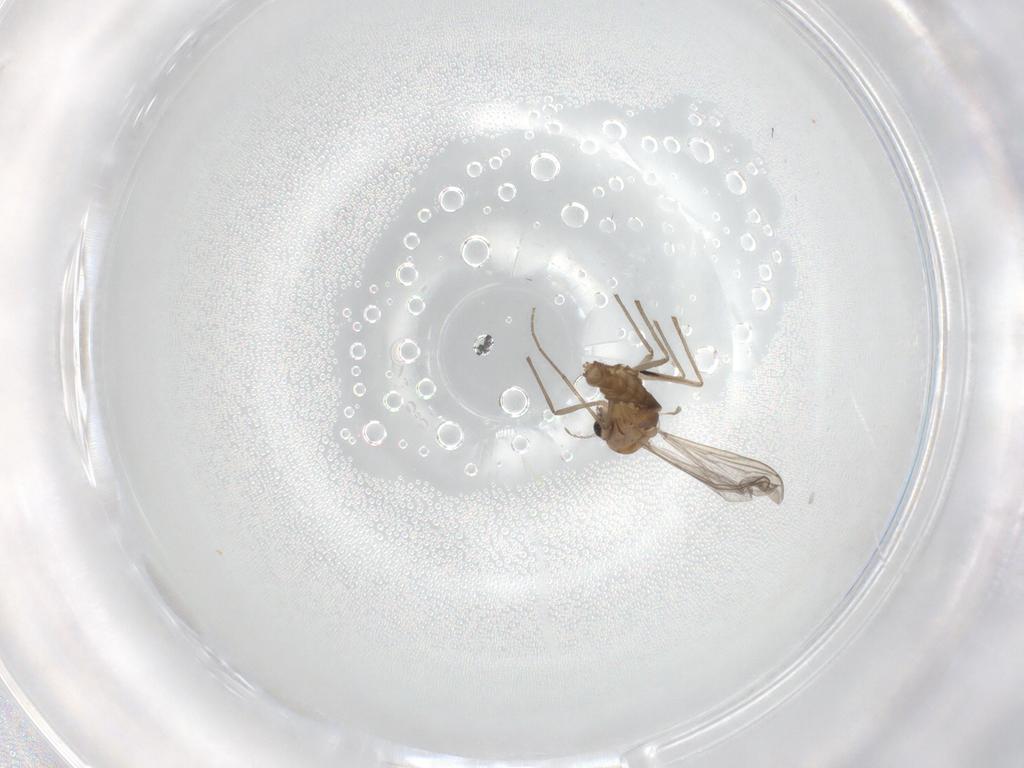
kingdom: Animalia
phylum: Arthropoda
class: Insecta
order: Diptera
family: Chironomidae
